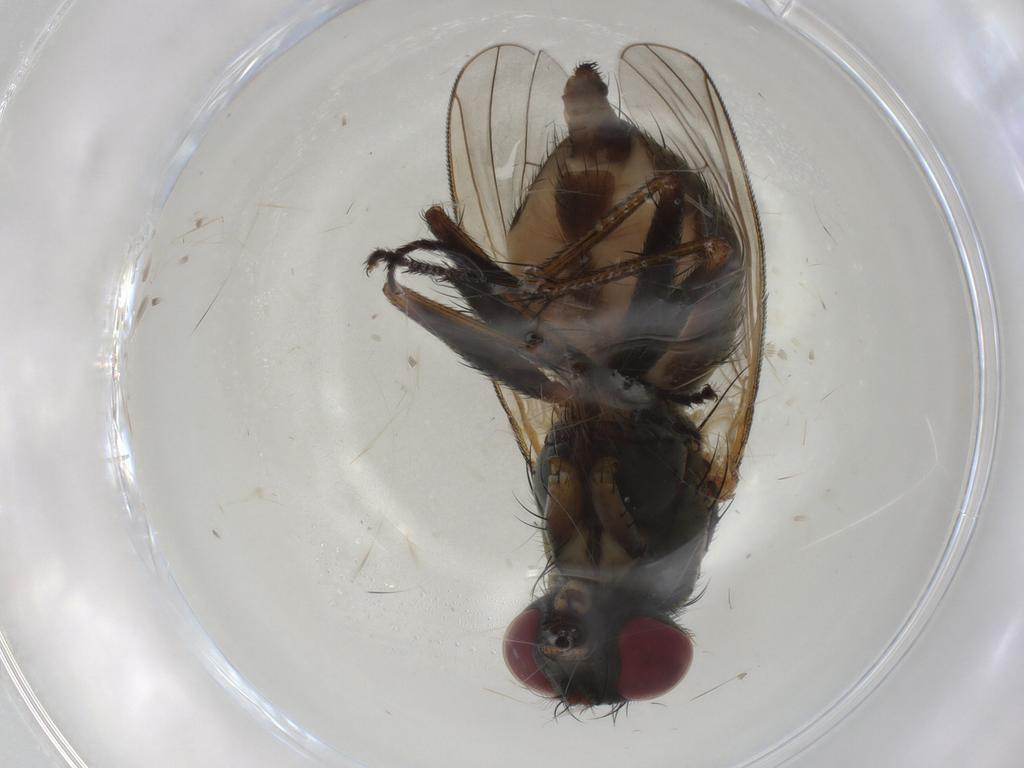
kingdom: Animalia
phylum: Arthropoda
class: Insecta
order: Diptera
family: Muscidae
